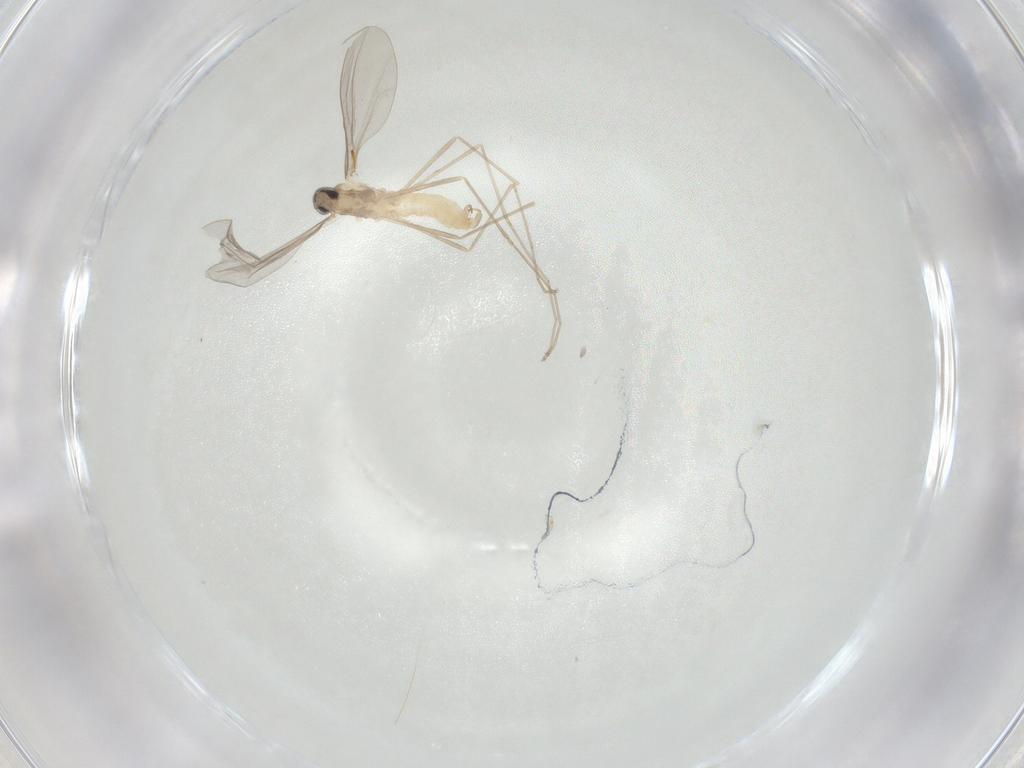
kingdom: Animalia
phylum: Arthropoda
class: Insecta
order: Diptera
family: Cecidomyiidae
